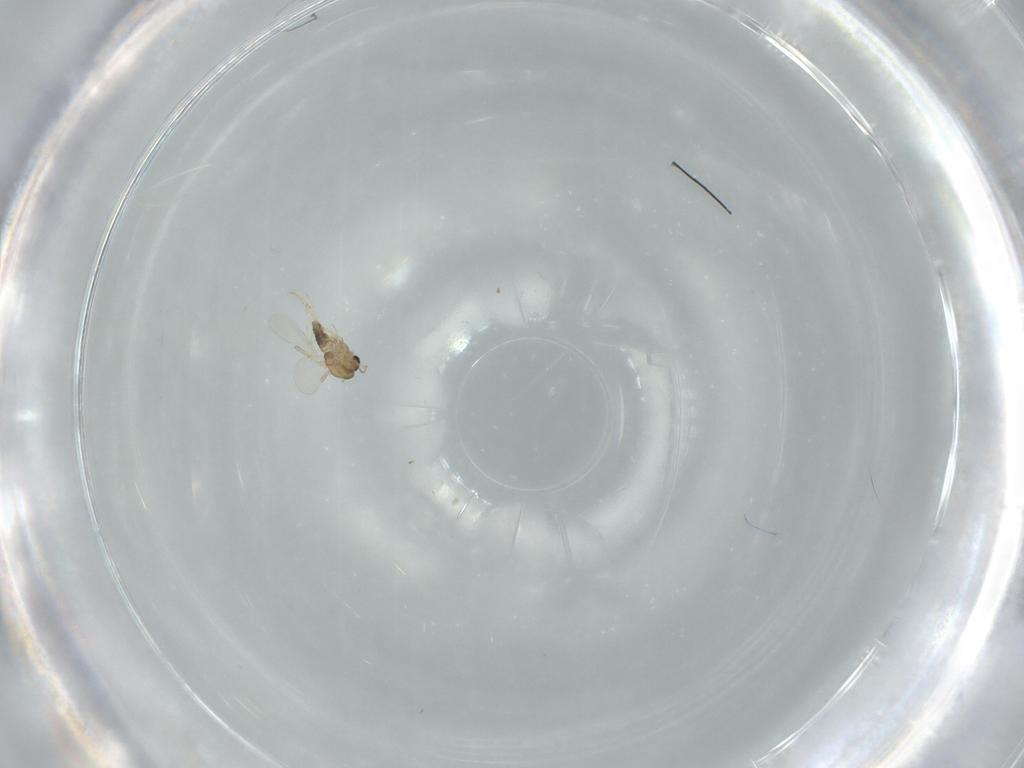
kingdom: Animalia
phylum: Arthropoda
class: Insecta
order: Diptera
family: Chironomidae
